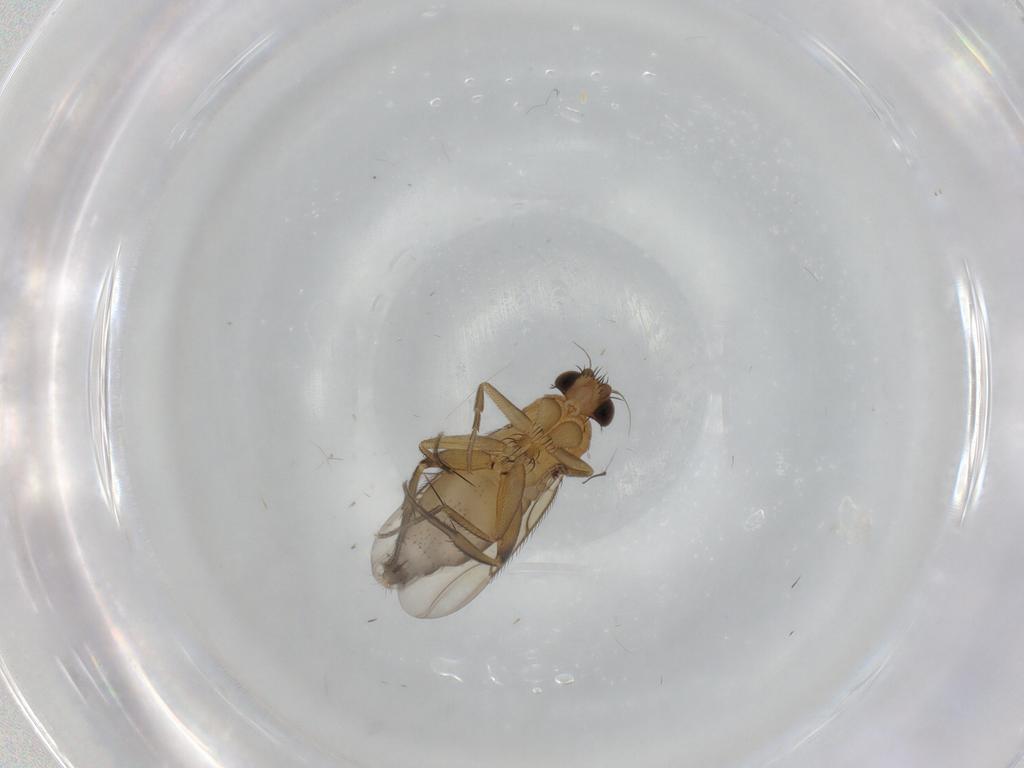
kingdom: Animalia
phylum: Arthropoda
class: Insecta
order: Diptera
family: Phoridae
